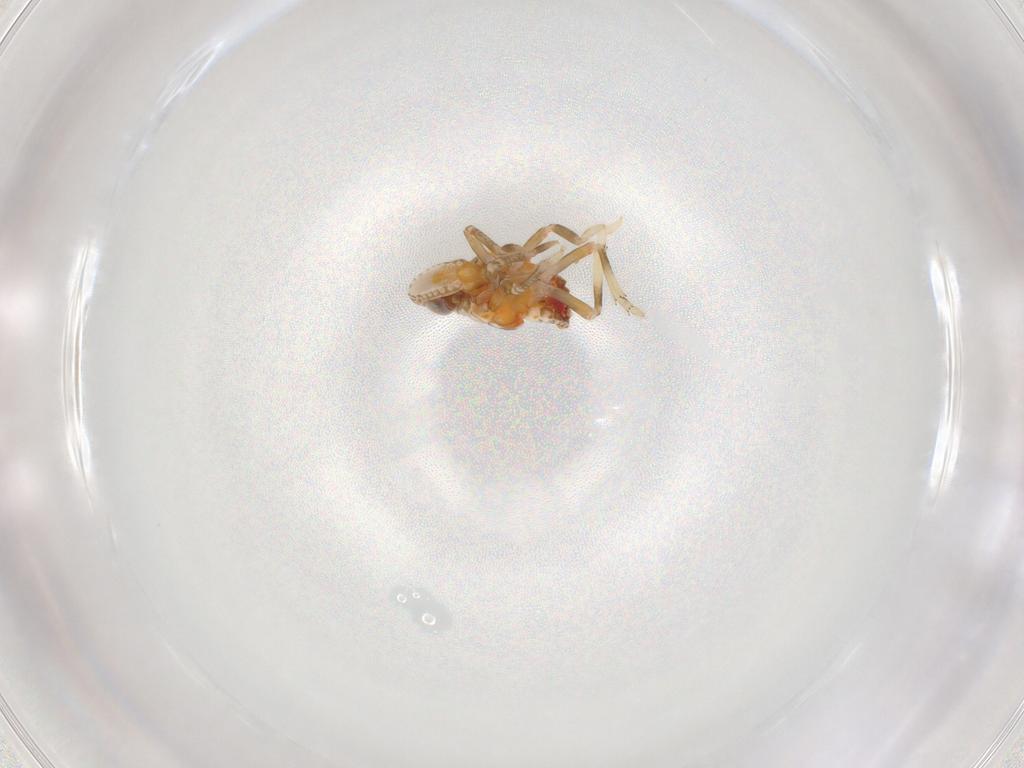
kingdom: Animalia
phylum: Arthropoda
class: Insecta
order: Hemiptera
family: Tropiduchidae
